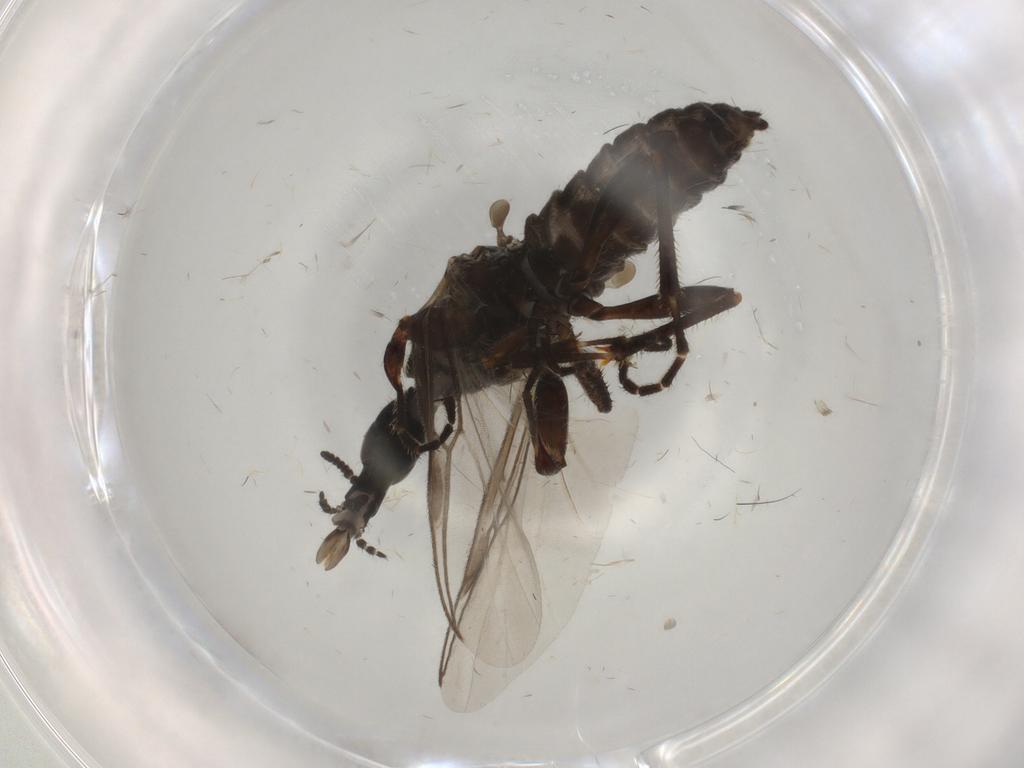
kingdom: Animalia
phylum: Arthropoda
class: Insecta
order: Diptera
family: Bibionidae
